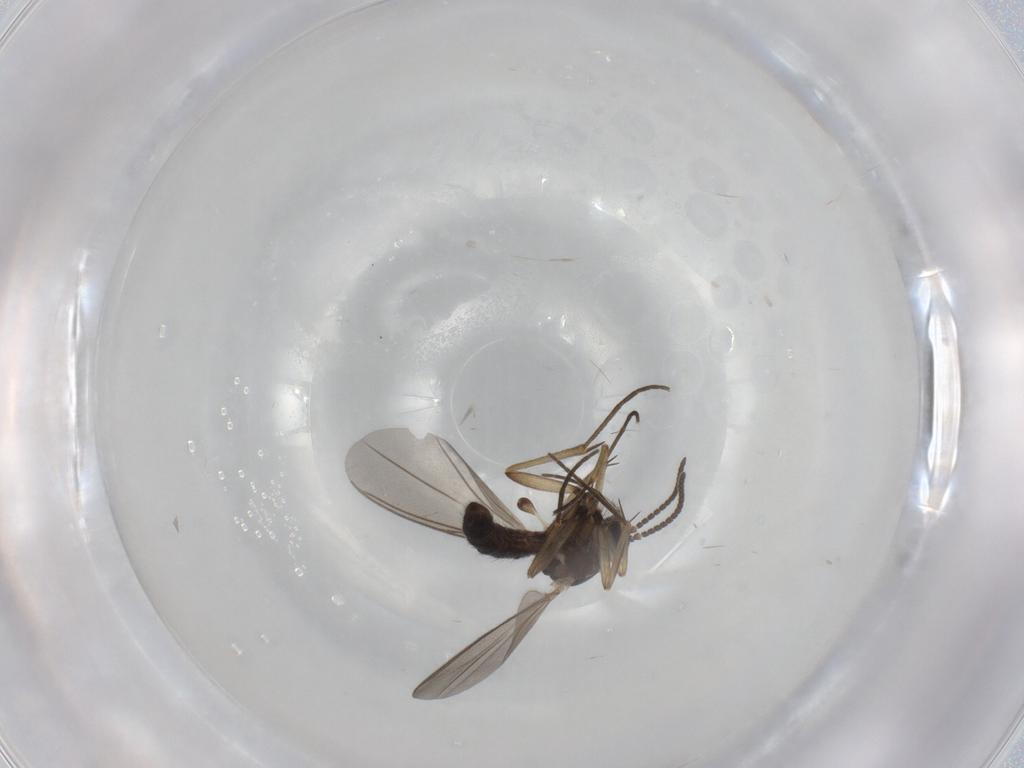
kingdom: Animalia
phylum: Arthropoda
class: Insecta
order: Diptera
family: Mycetophilidae
